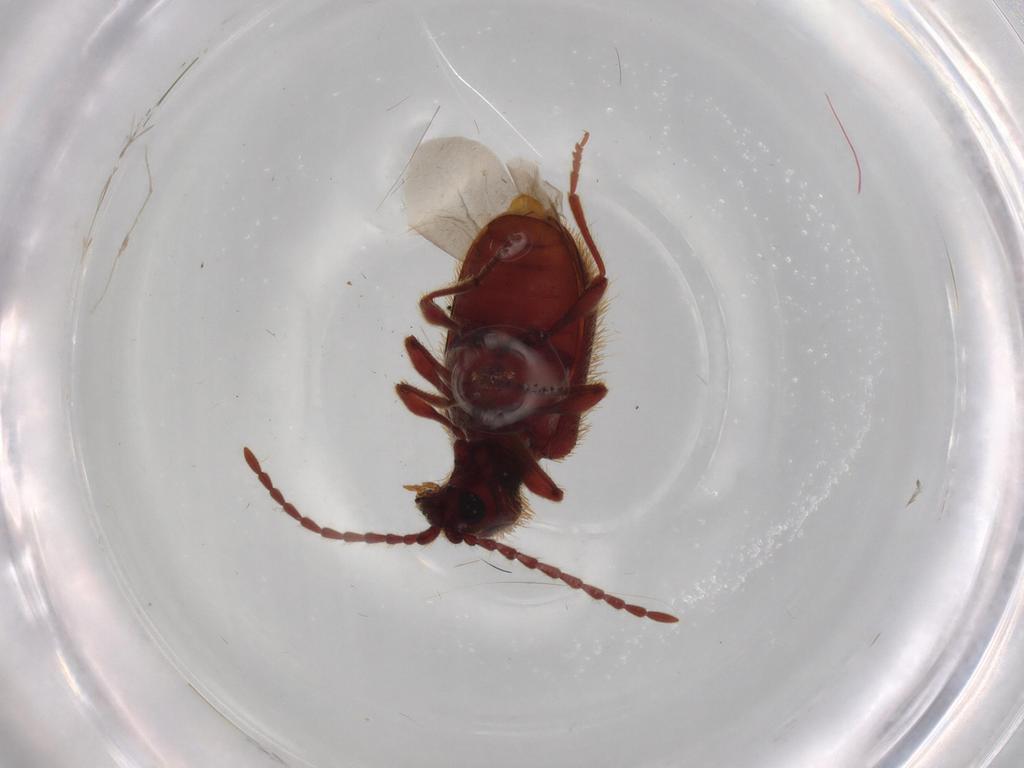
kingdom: Animalia
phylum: Arthropoda
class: Insecta
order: Coleoptera
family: Ptinidae
